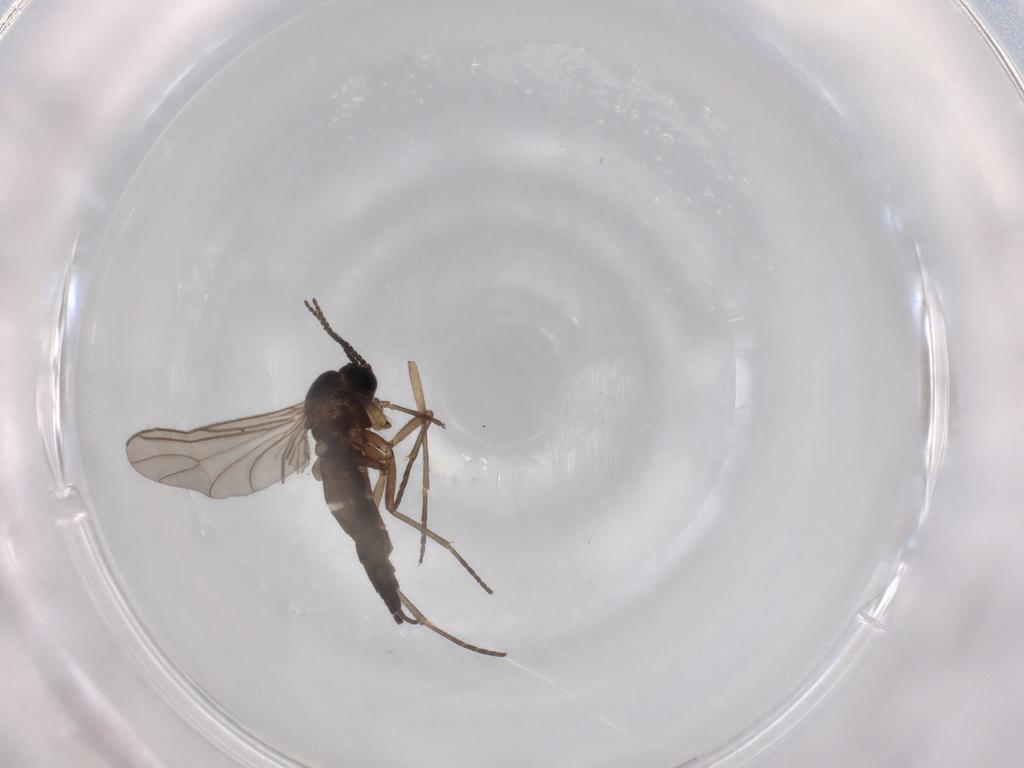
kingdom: Animalia
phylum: Arthropoda
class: Insecta
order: Diptera
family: Sciaridae
